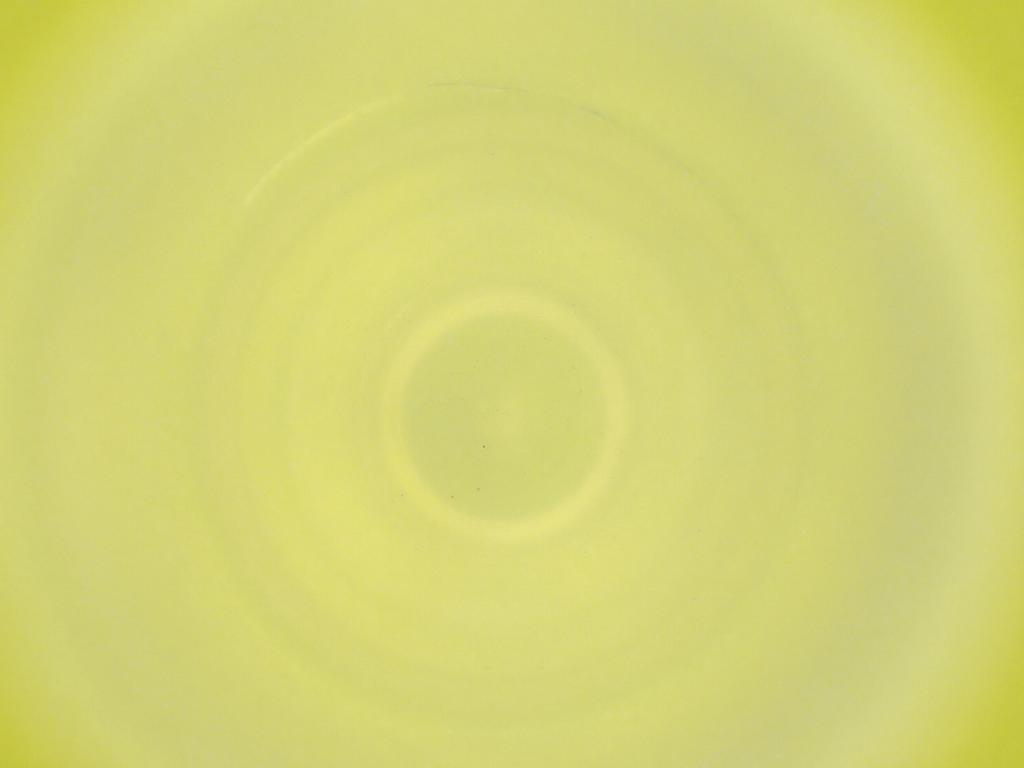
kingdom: Animalia
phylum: Arthropoda
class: Insecta
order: Diptera
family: Cecidomyiidae
